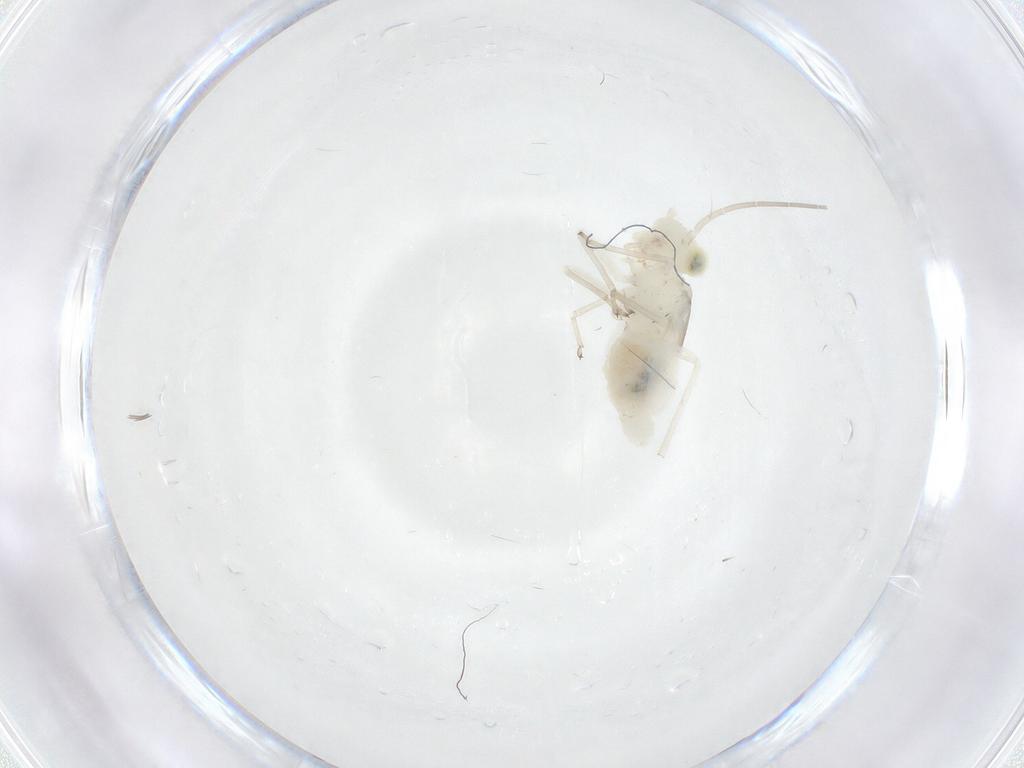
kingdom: Animalia
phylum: Arthropoda
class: Insecta
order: Psocodea
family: Caeciliusidae
